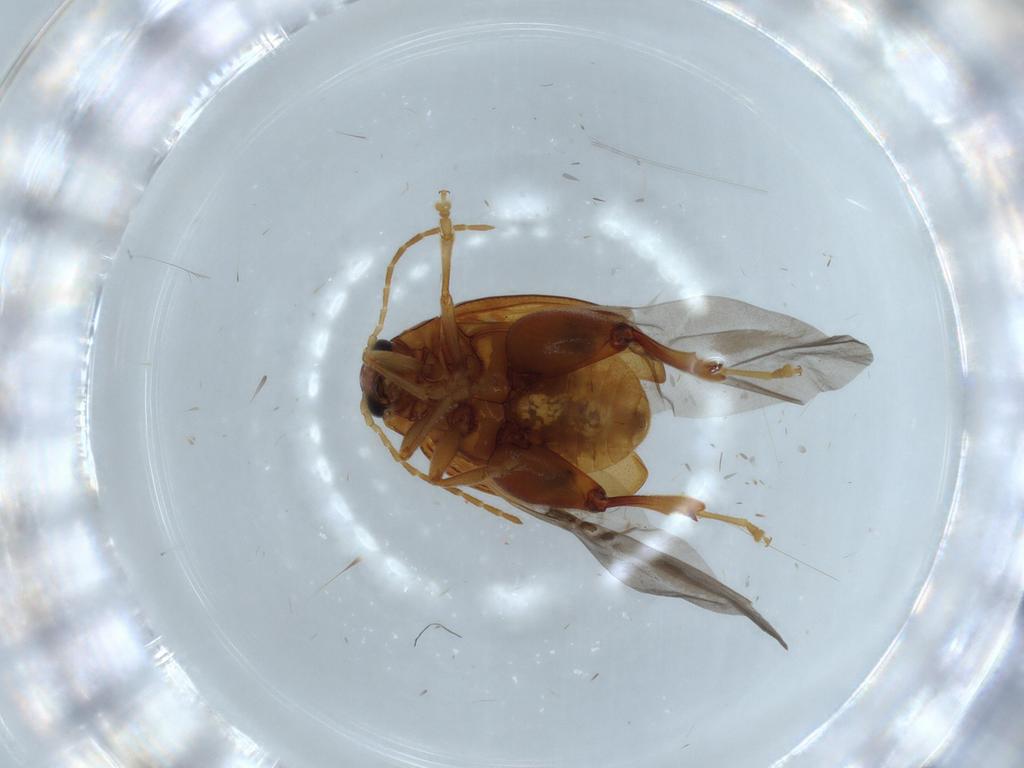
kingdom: Animalia
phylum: Arthropoda
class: Insecta
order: Coleoptera
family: Chrysomelidae
